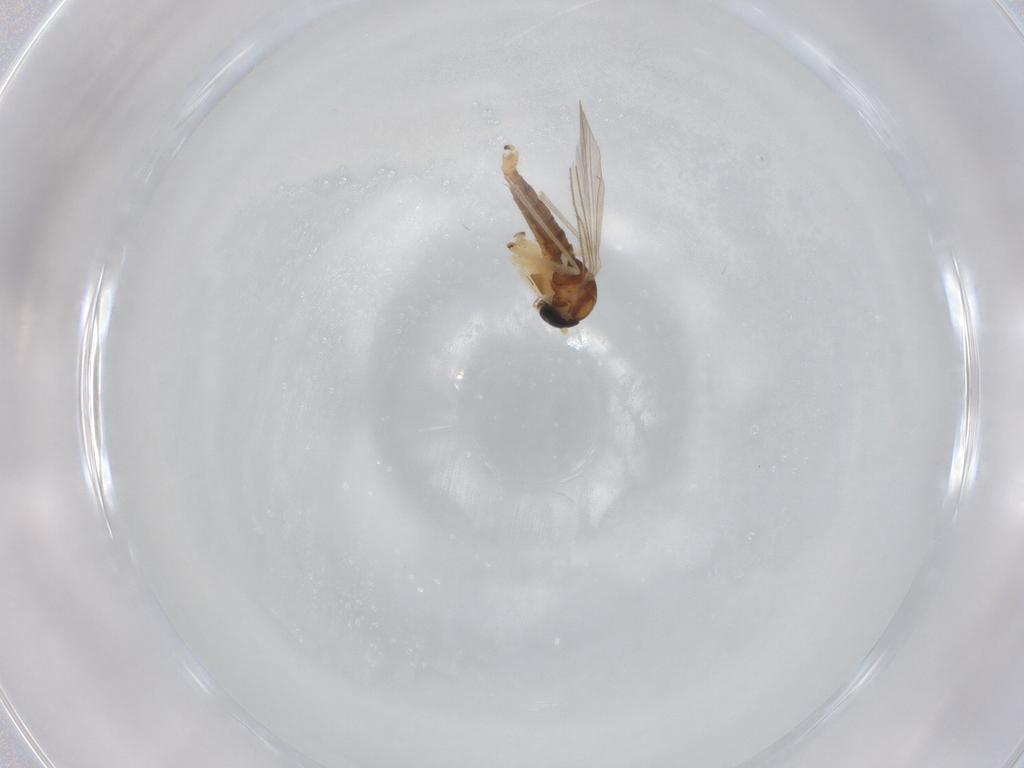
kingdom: Animalia
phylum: Arthropoda
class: Insecta
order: Diptera
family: Sciaridae
